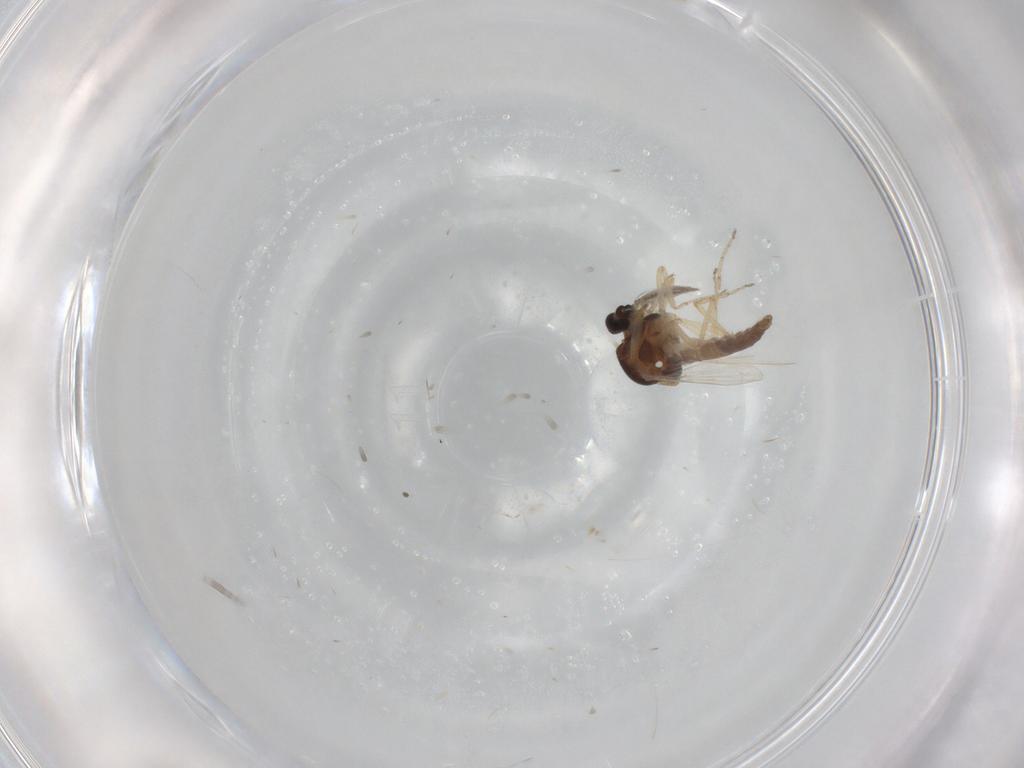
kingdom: Animalia
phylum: Arthropoda
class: Insecta
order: Diptera
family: Ceratopogonidae
